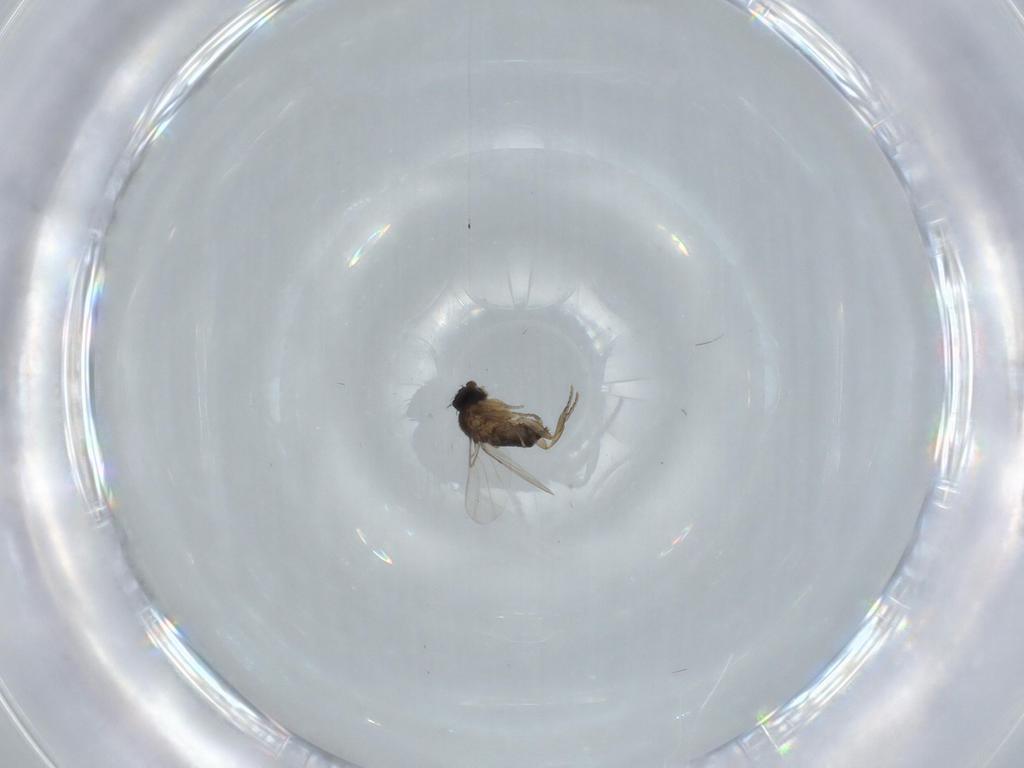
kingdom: Animalia
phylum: Arthropoda
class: Insecta
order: Diptera
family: Phoridae
